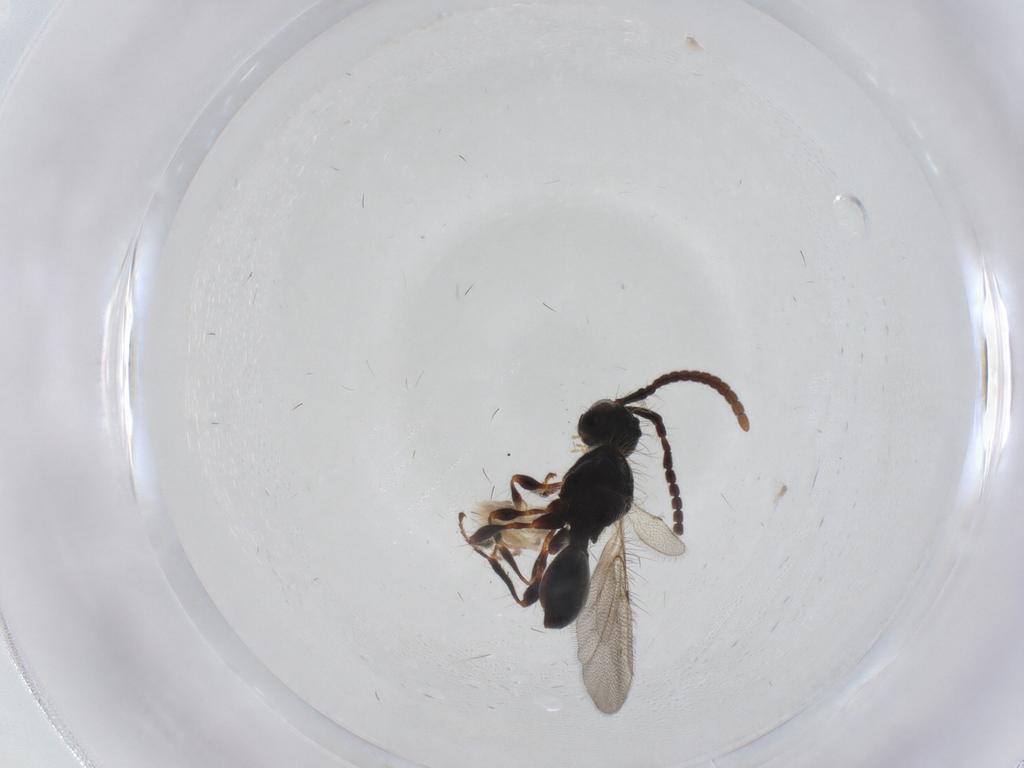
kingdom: Animalia
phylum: Arthropoda
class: Insecta
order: Hymenoptera
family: Diapriidae
